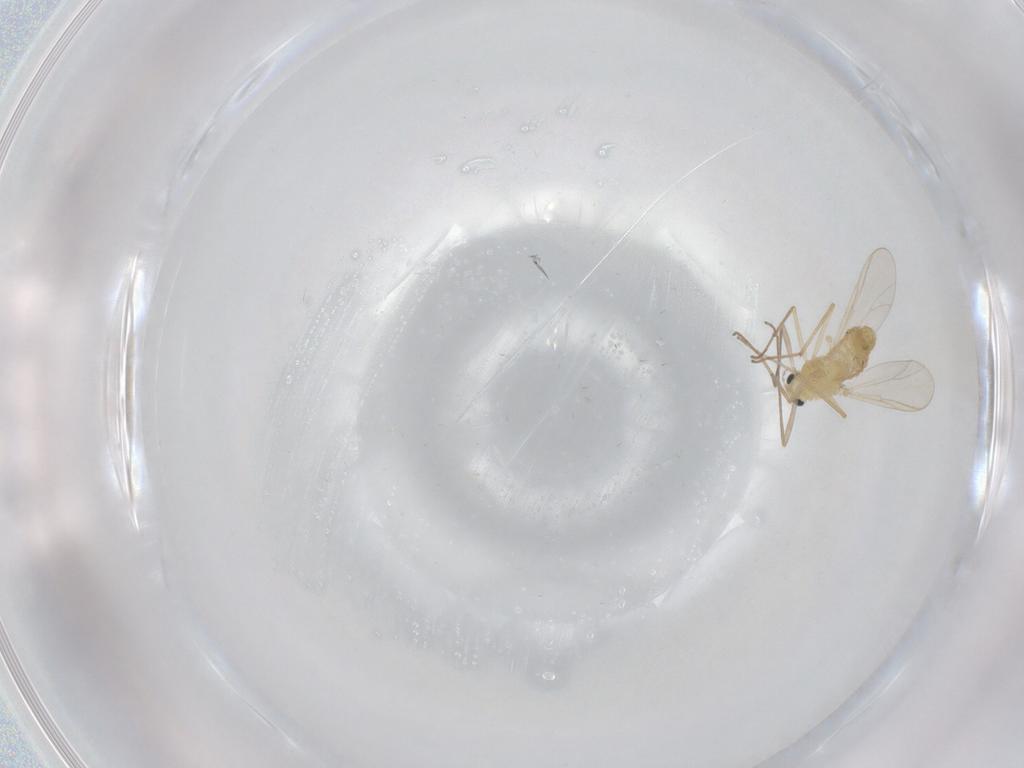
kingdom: Animalia
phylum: Arthropoda
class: Insecta
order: Diptera
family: Chironomidae
